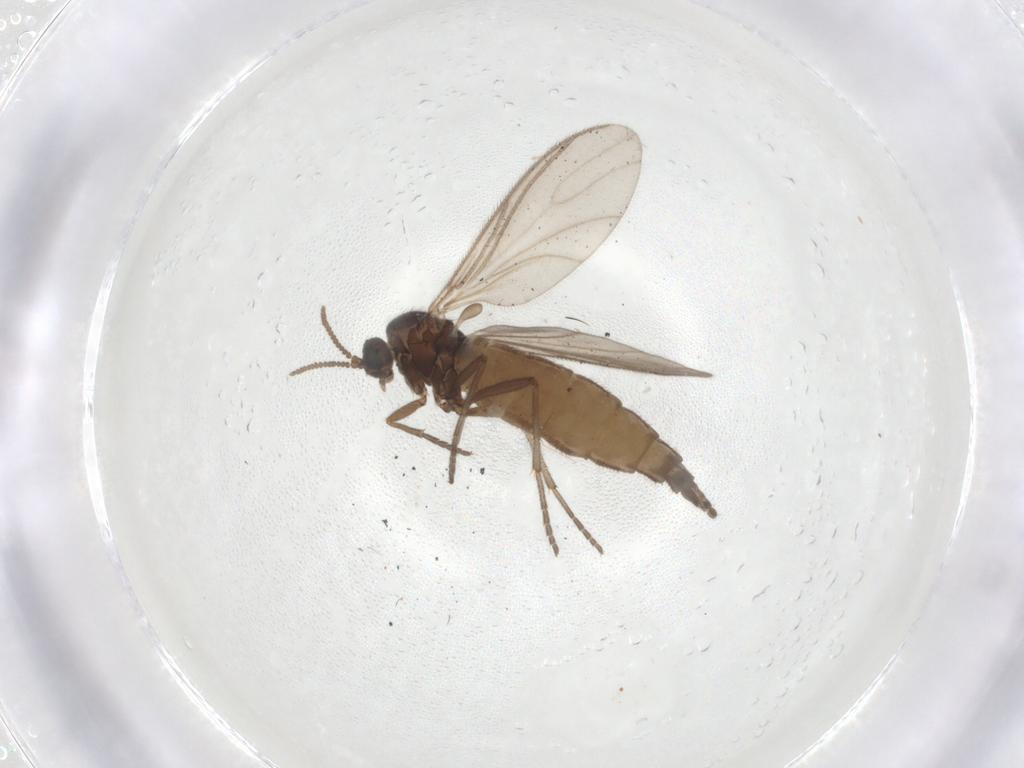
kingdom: Animalia
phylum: Arthropoda
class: Insecta
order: Diptera
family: Sciaridae
